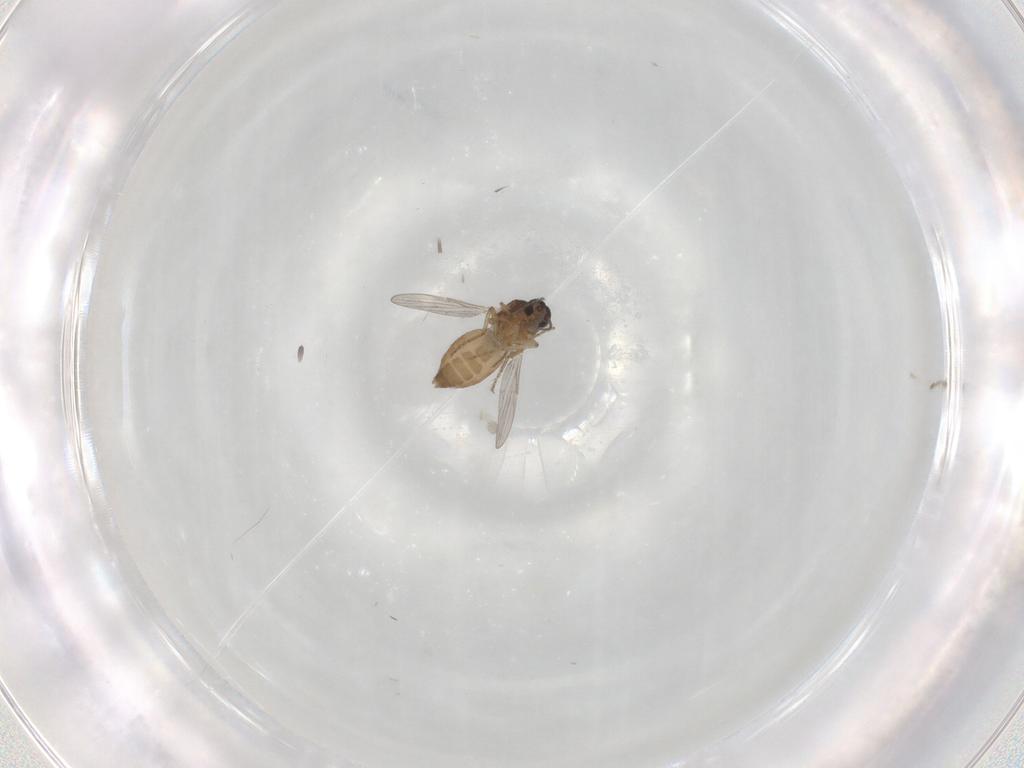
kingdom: Animalia
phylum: Arthropoda
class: Insecta
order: Diptera
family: Ceratopogonidae
